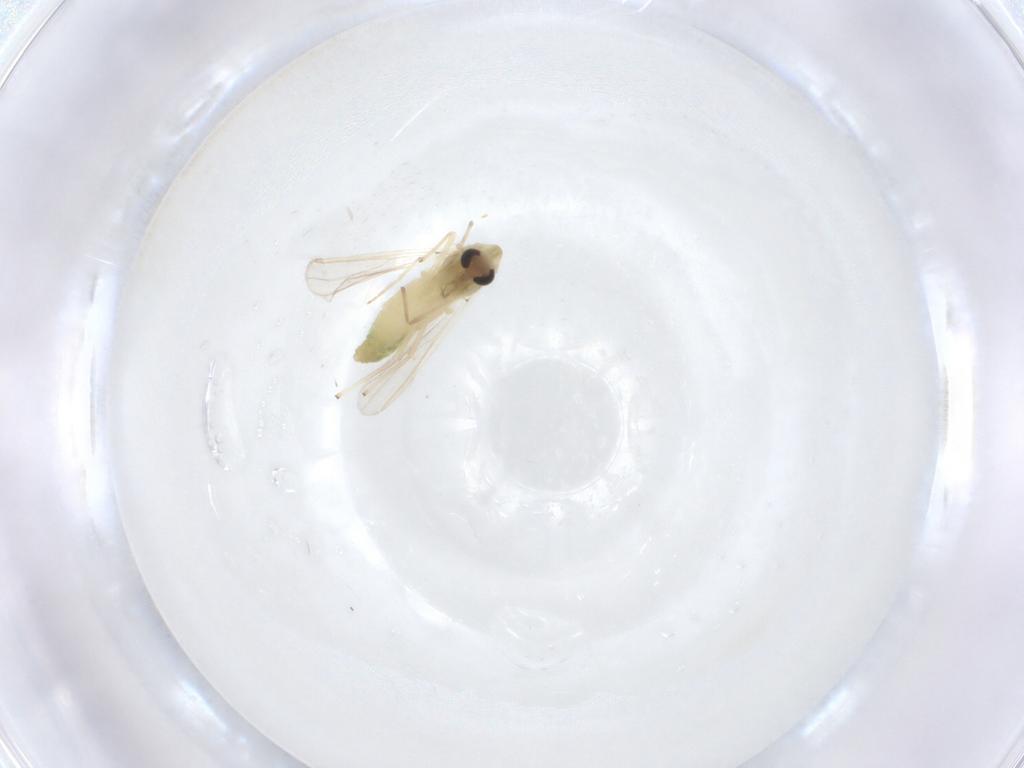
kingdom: Animalia
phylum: Arthropoda
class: Insecta
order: Diptera
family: Chironomidae
